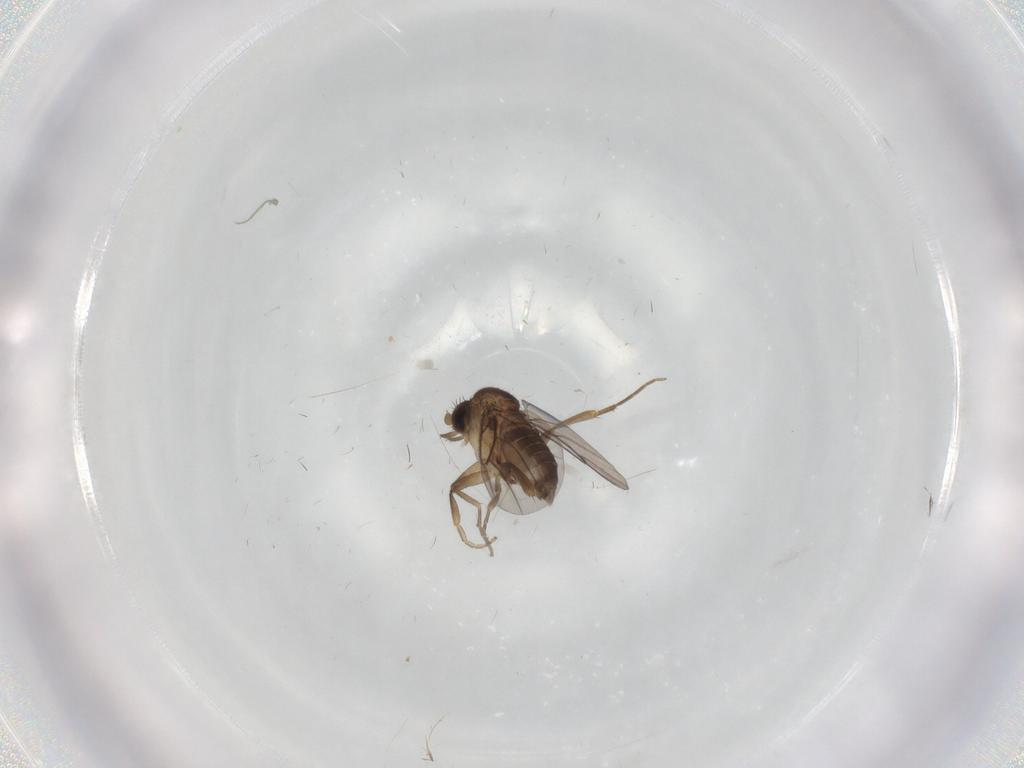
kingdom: Animalia
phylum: Arthropoda
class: Insecta
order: Diptera
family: Phoridae
